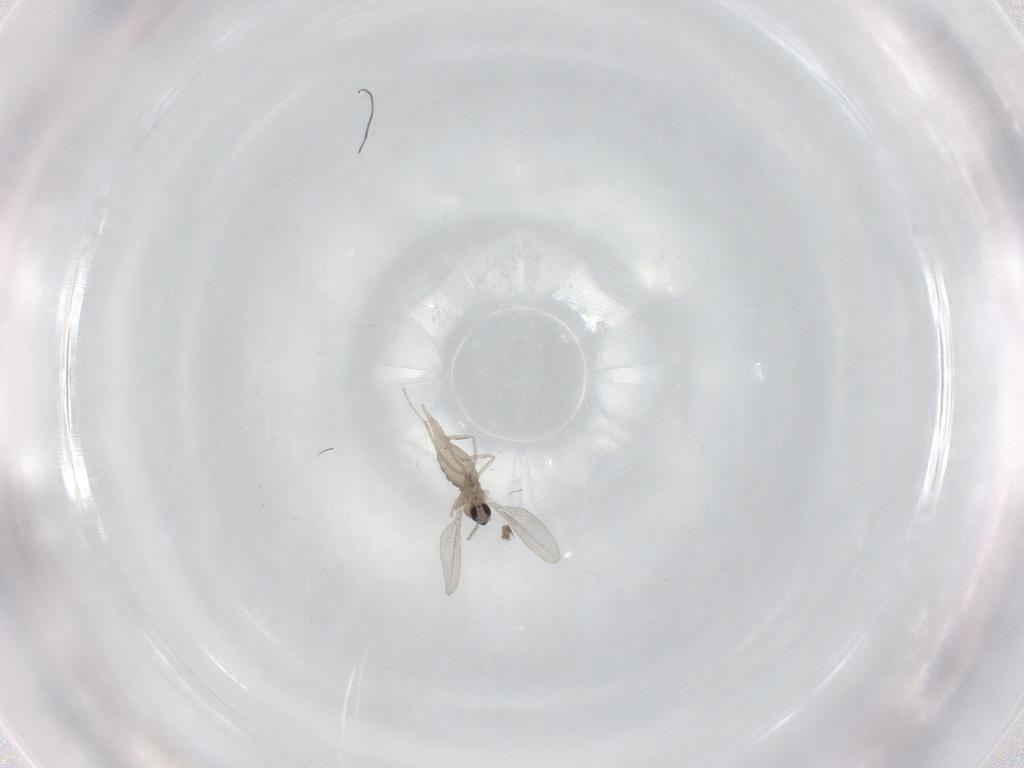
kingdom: Animalia
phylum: Arthropoda
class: Insecta
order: Diptera
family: Cecidomyiidae
